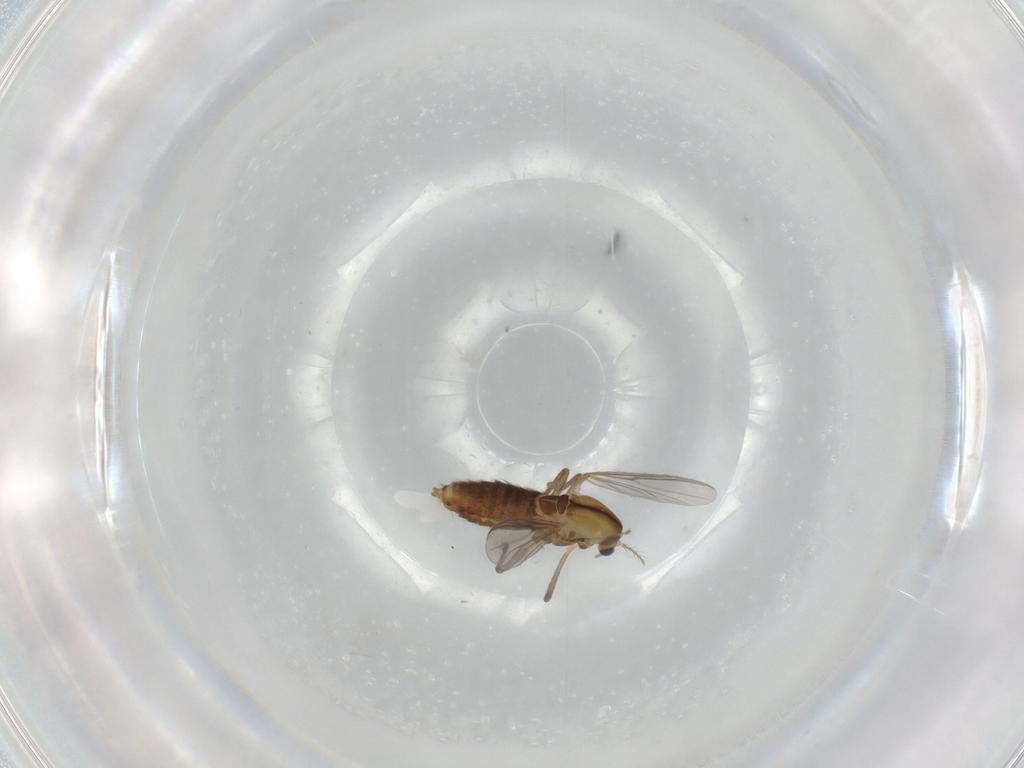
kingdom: Animalia
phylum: Arthropoda
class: Insecta
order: Diptera
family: Chironomidae
